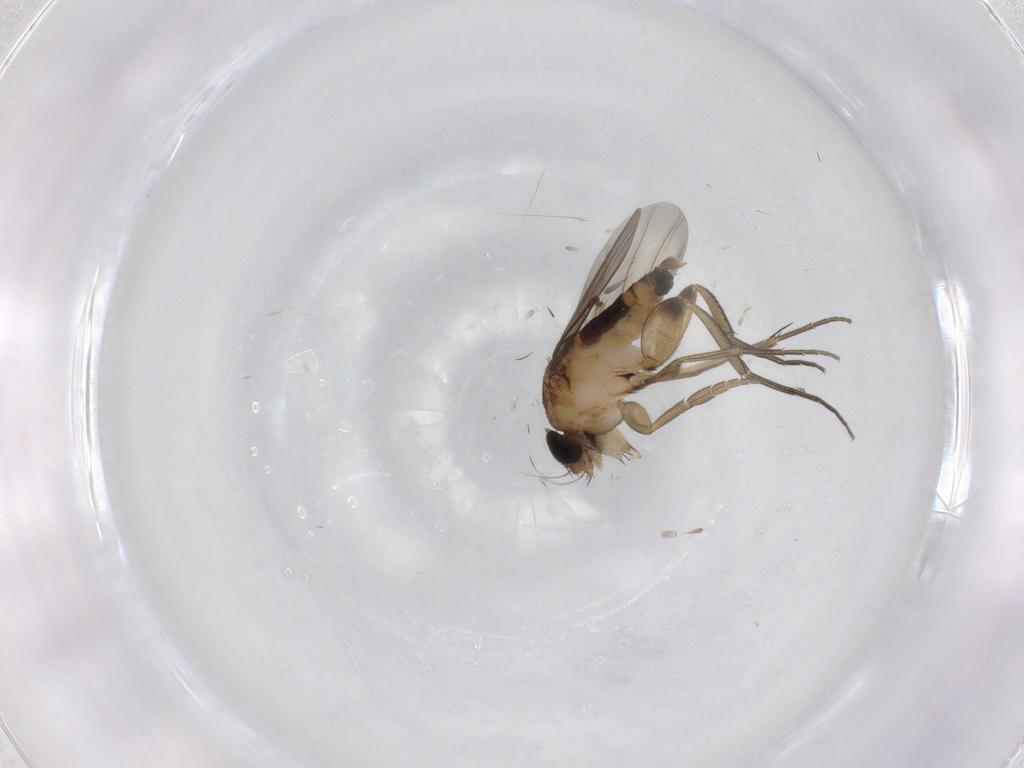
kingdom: Animalia
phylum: Arthropoda
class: Insecta
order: Diptera
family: Phoridae
